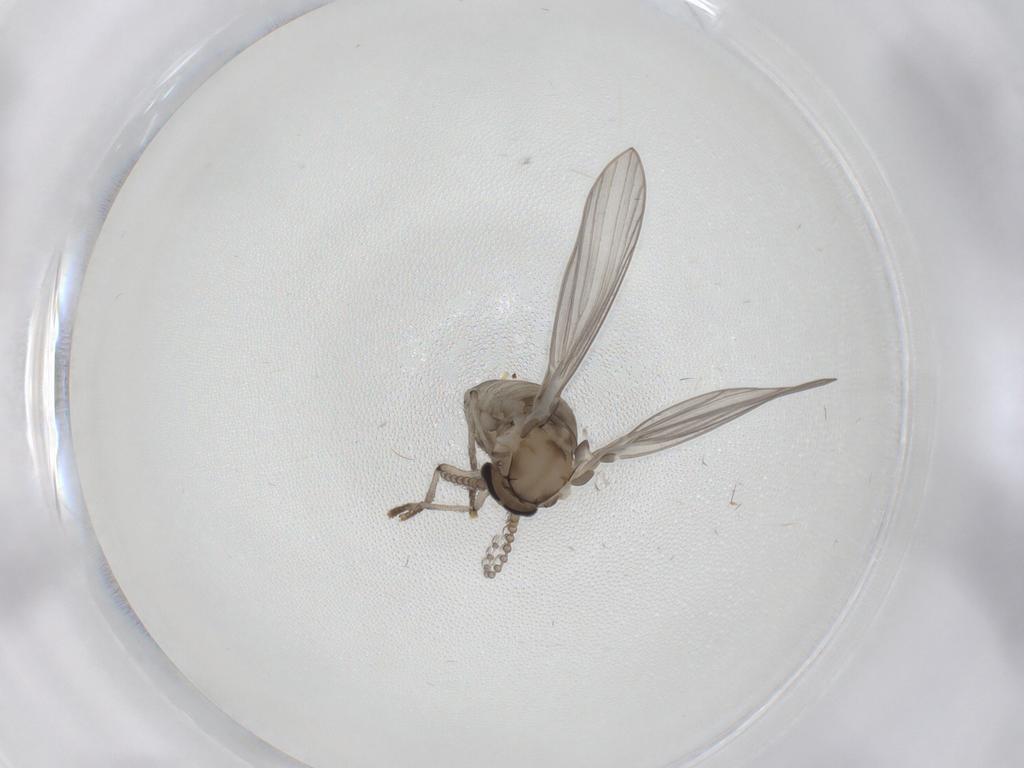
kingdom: Animalia
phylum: Arthropoda
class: Insecta
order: Diptera
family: Psychodidae
